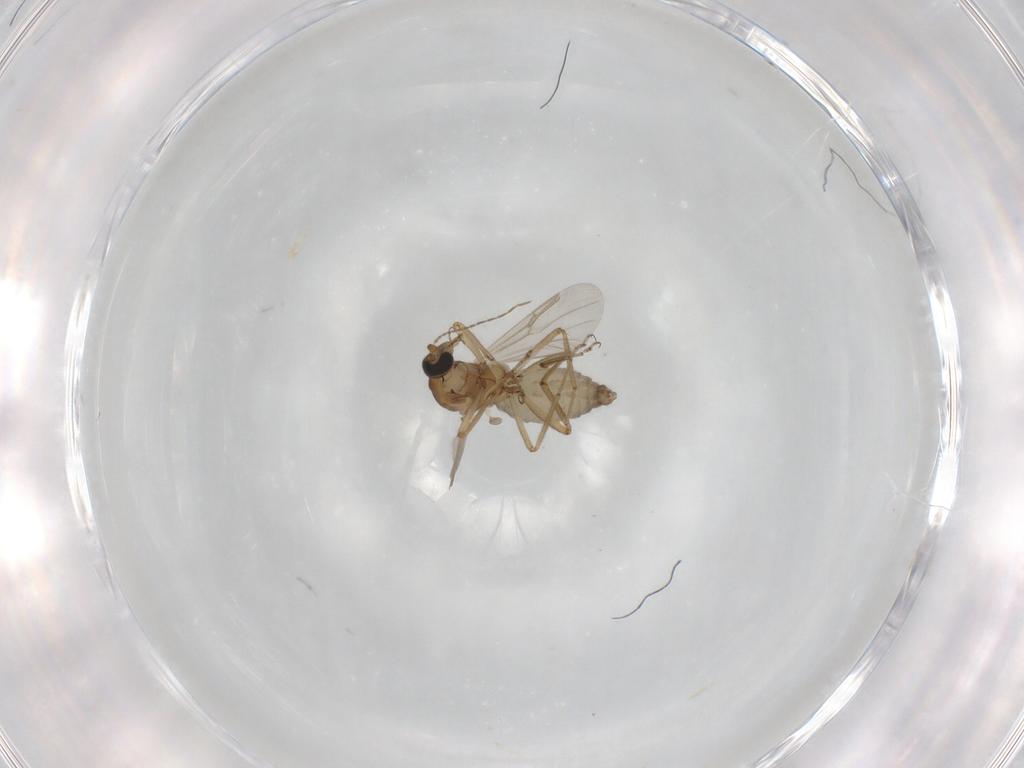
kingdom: Animalia
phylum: Arthropoda
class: Insecta
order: Diptera
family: Ceratopogonidae
